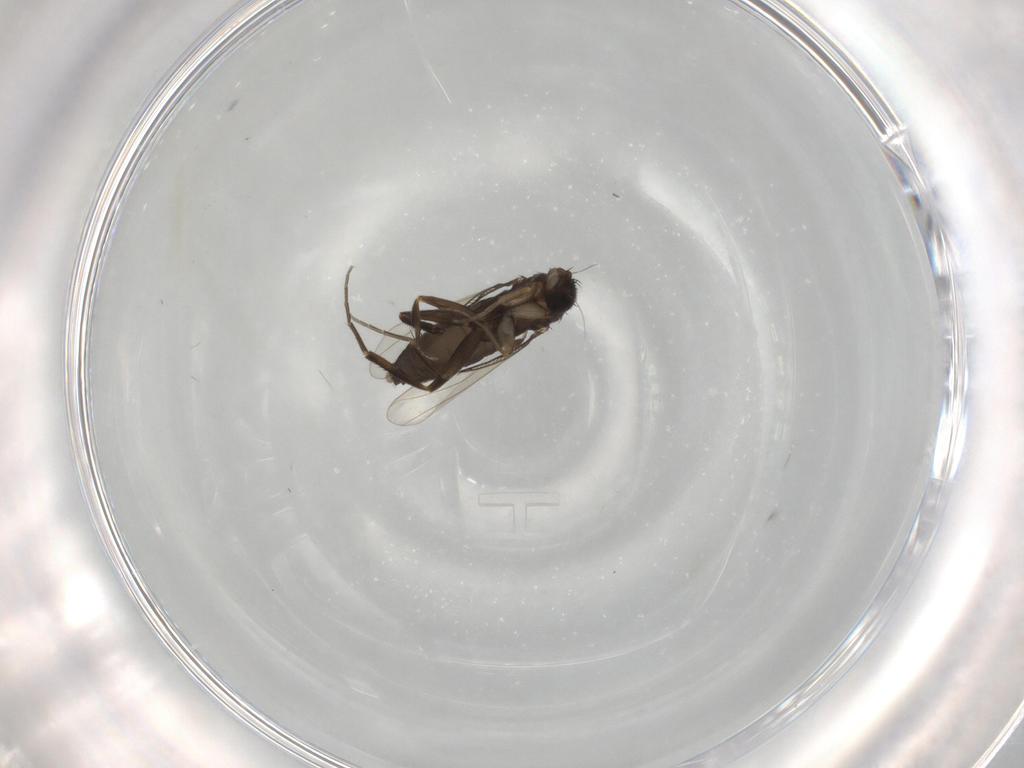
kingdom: Animalia
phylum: Arthropoda
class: Insecta
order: Diptera
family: Phoridae
